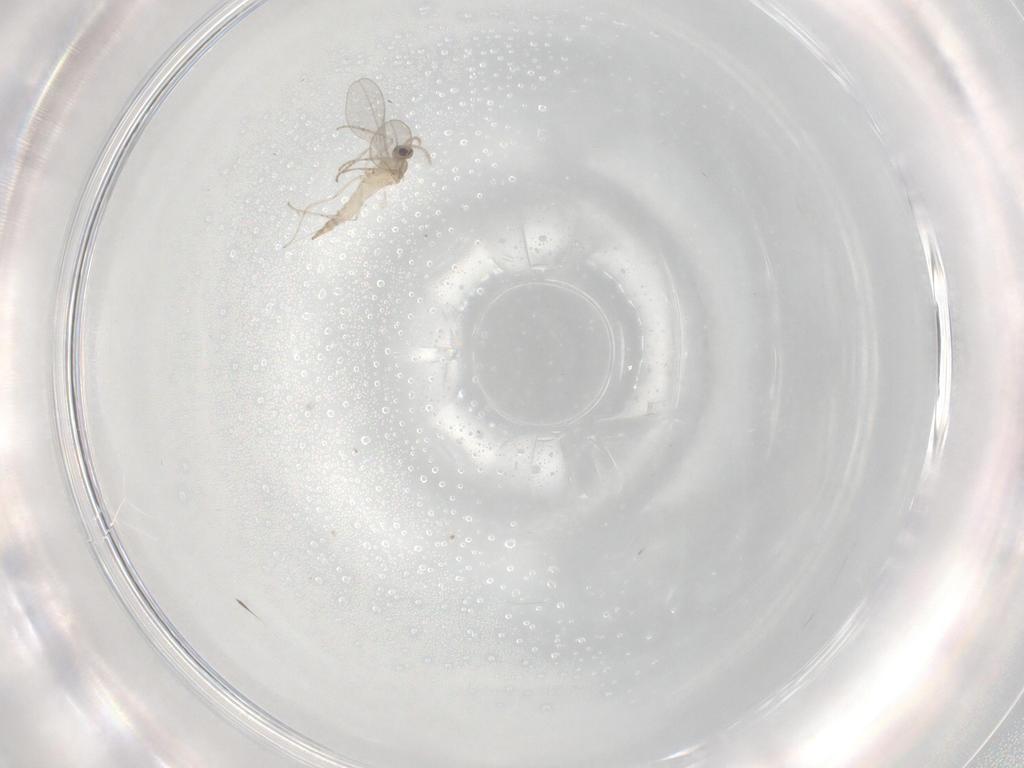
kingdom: Animalia
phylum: Arthropoda
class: Insecta
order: Diptera
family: Cecidomyiidae
